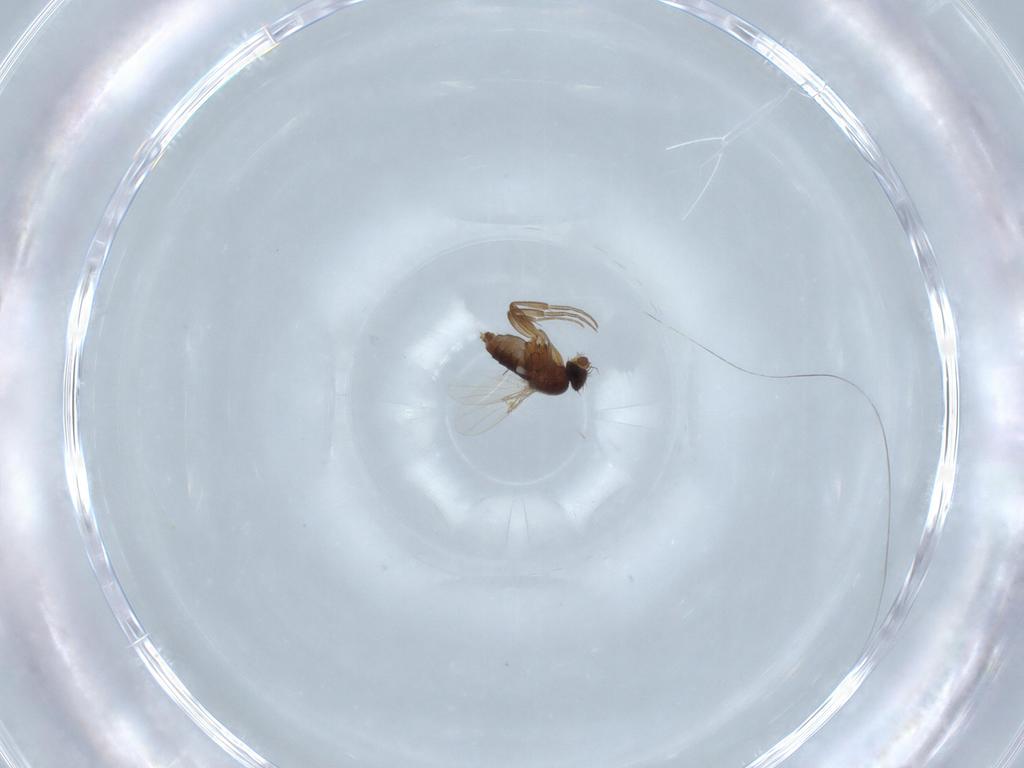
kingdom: Animalia
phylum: Arthropoda
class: Insecta
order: Diptera
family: Phoridae
